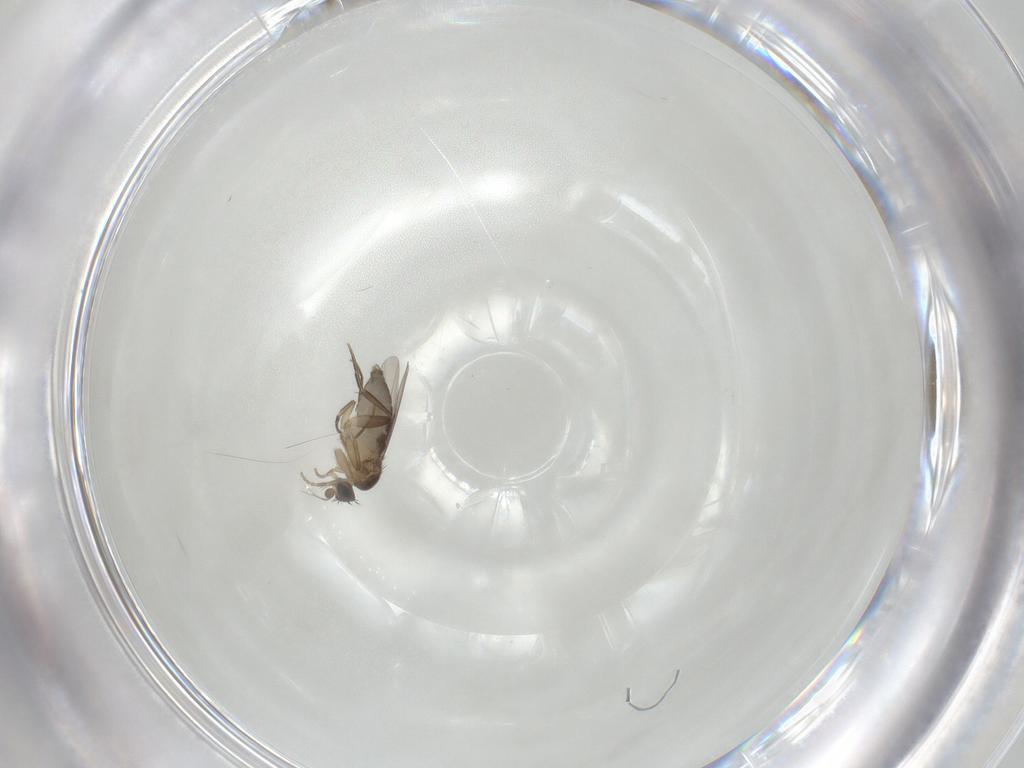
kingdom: Animalia
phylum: Arthropoda
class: Insecta
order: Diptera
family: Phoridae
